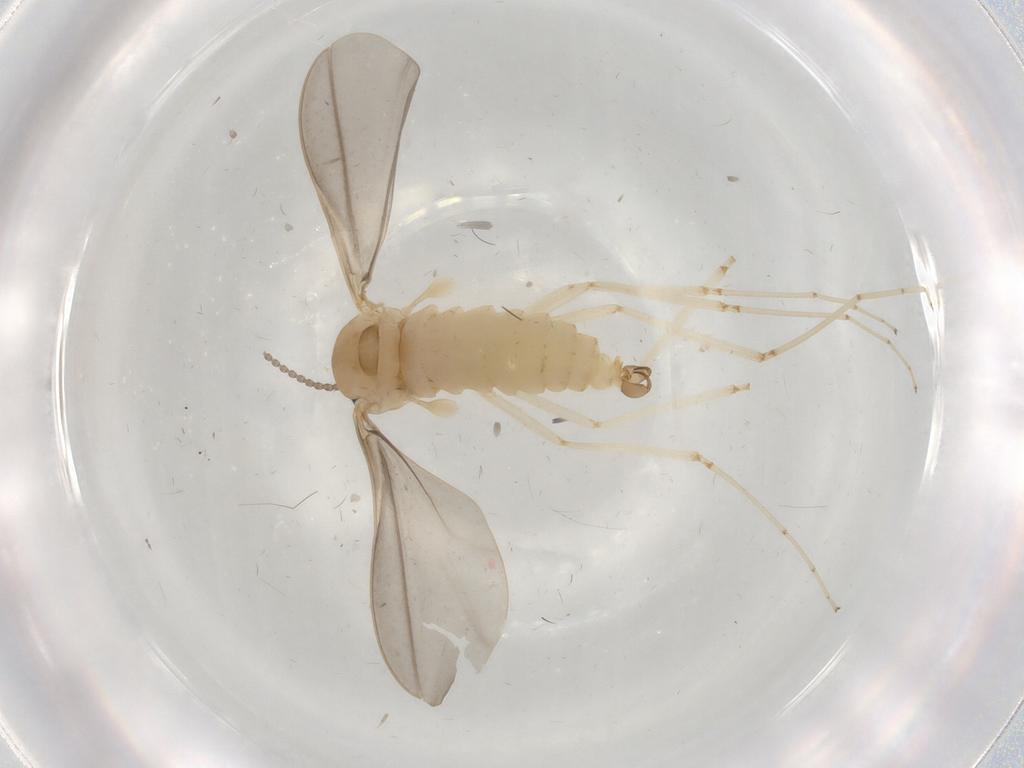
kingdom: Animalia
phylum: Arthropoda
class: Insecta
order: Diptera
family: Cecidomyiidae
